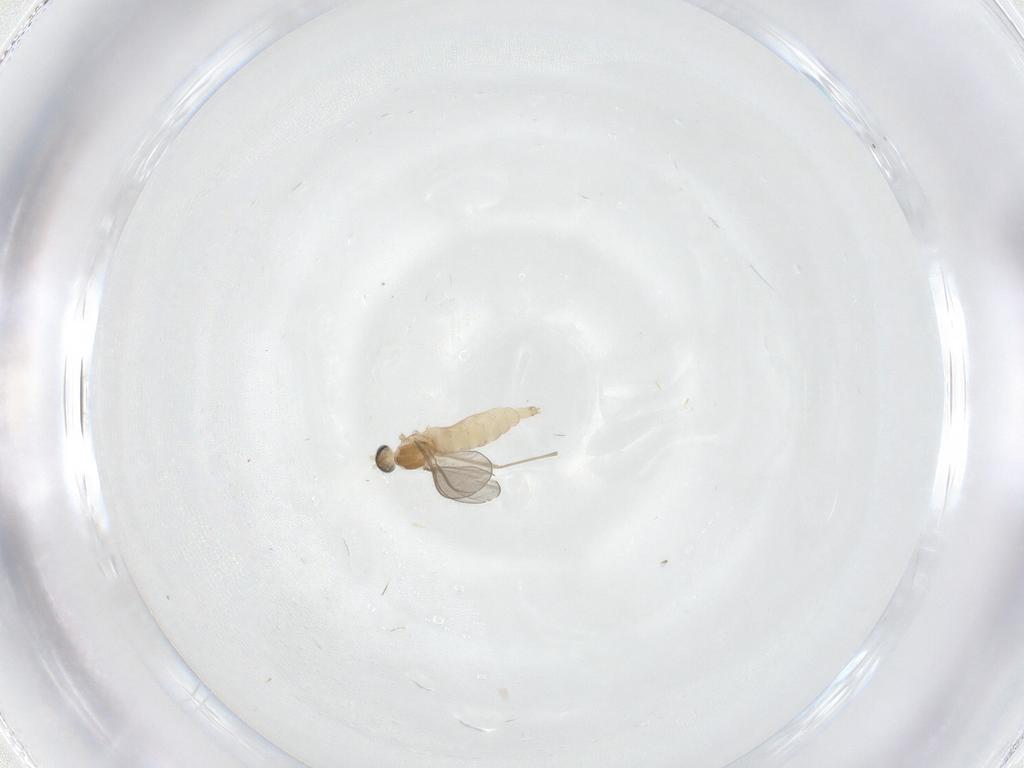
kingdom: Animalia
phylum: Arthropoda
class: Insecta
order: Diptera
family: Cecidomyiidae
